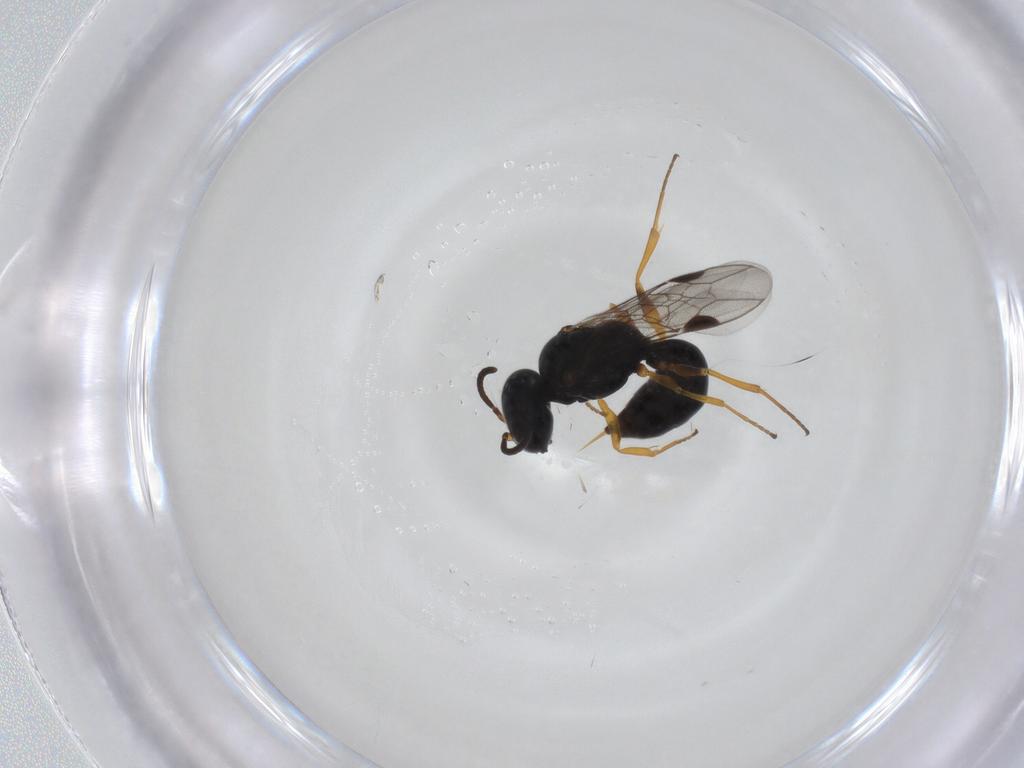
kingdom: Animalia
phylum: Arthropoda
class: Insecta
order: Hymenoptera
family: Crabronidae
